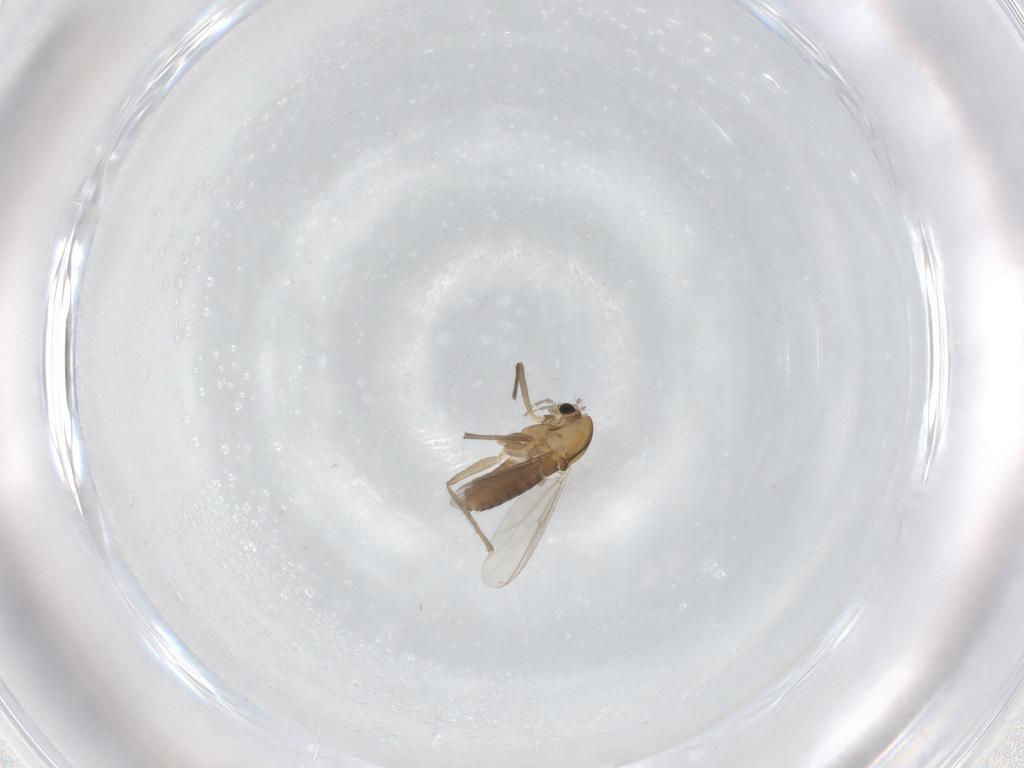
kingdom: Animalia
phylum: Arthropoda
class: Insecta
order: Diptera
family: Chironomidae
